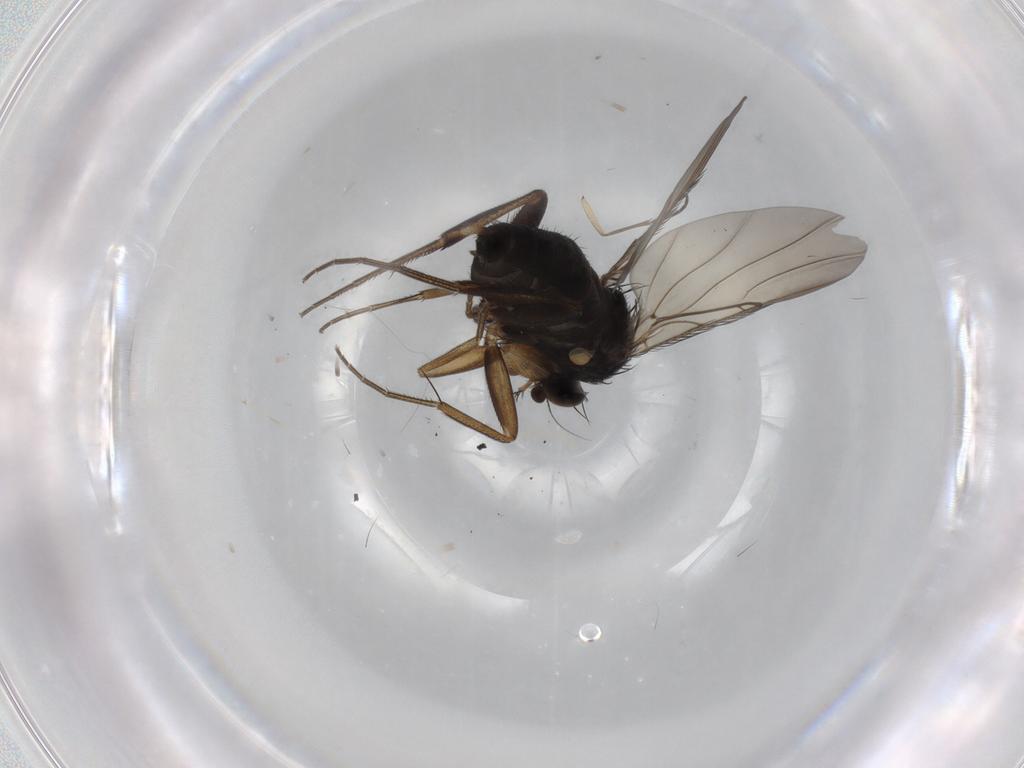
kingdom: Animalia
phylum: Arthropoda
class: Insecta
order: Diptera
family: Phoridae
